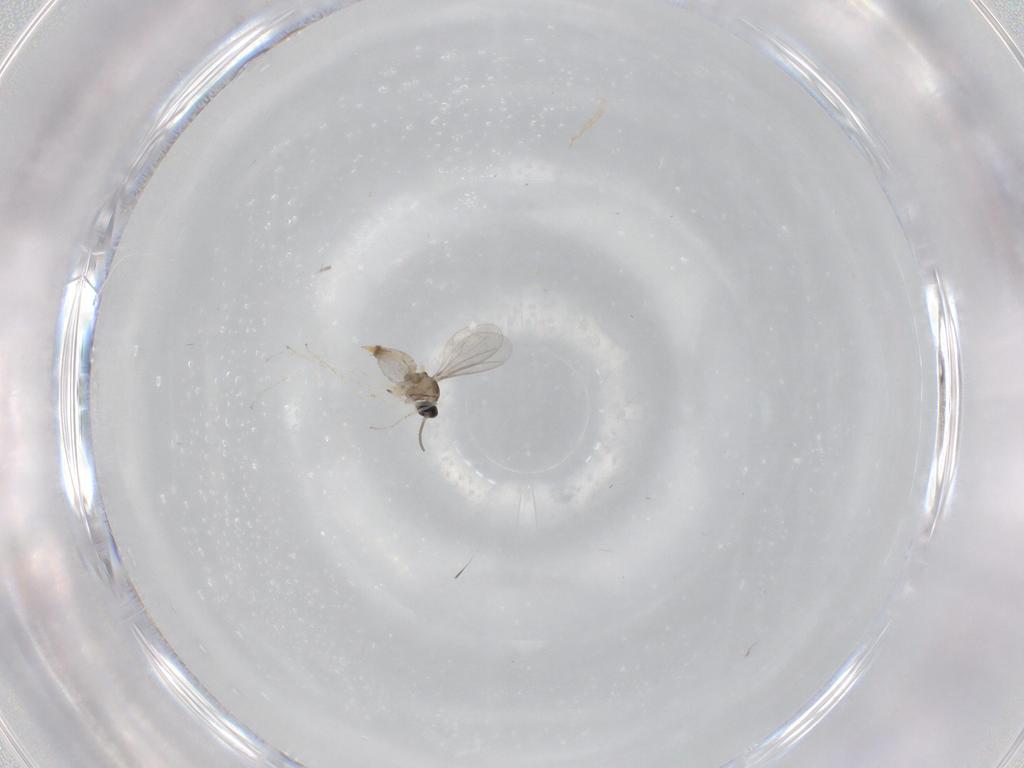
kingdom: Animalia
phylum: Arthropoda
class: Insecta
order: Diptera
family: Cecidomyiidae
